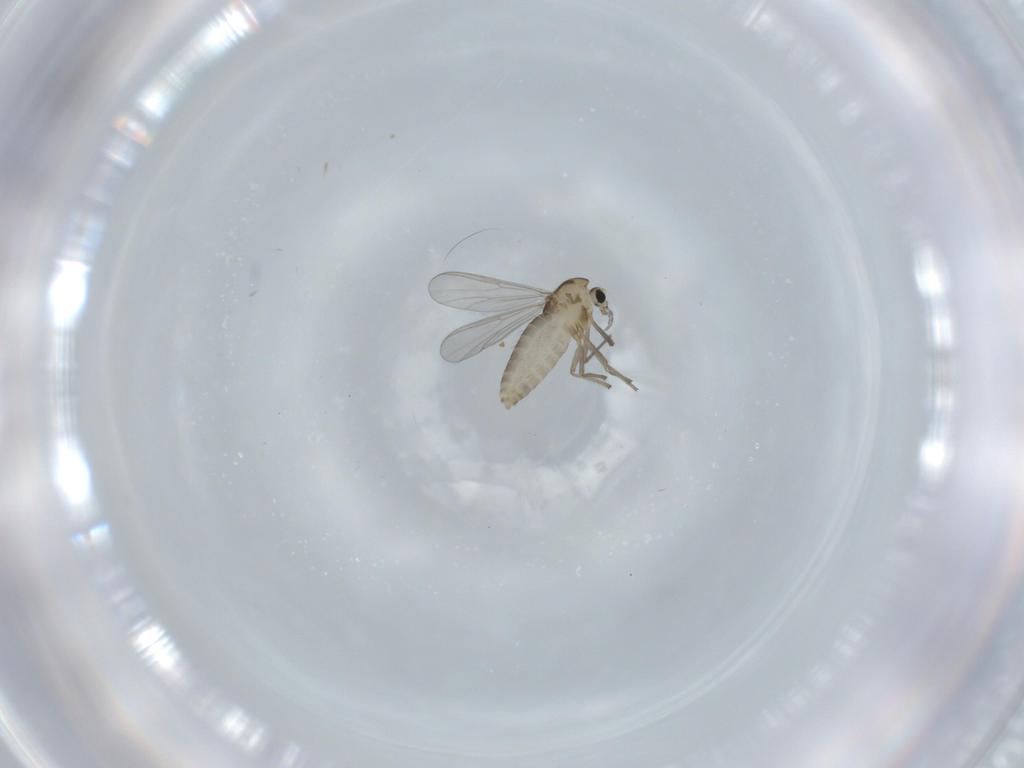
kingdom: Animalia
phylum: Arthropoda
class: Insecta
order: Diptera
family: Chironomidae
